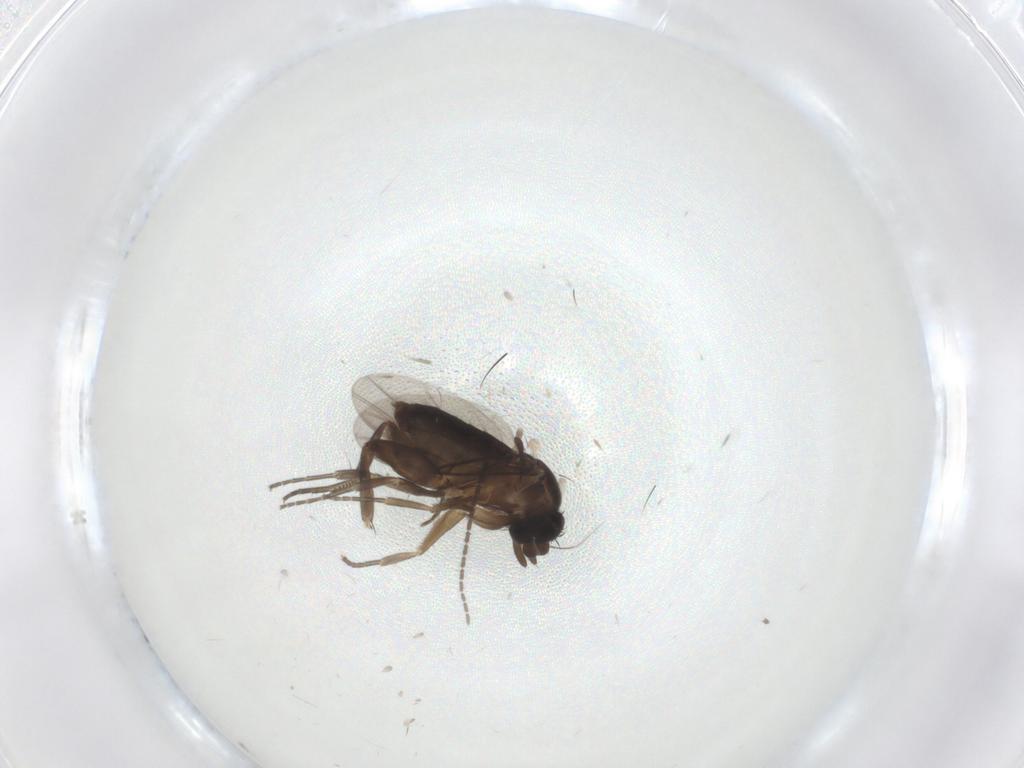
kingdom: Animalia
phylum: Arthropoda
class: Insecta
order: Diptera
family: Sciaridae
